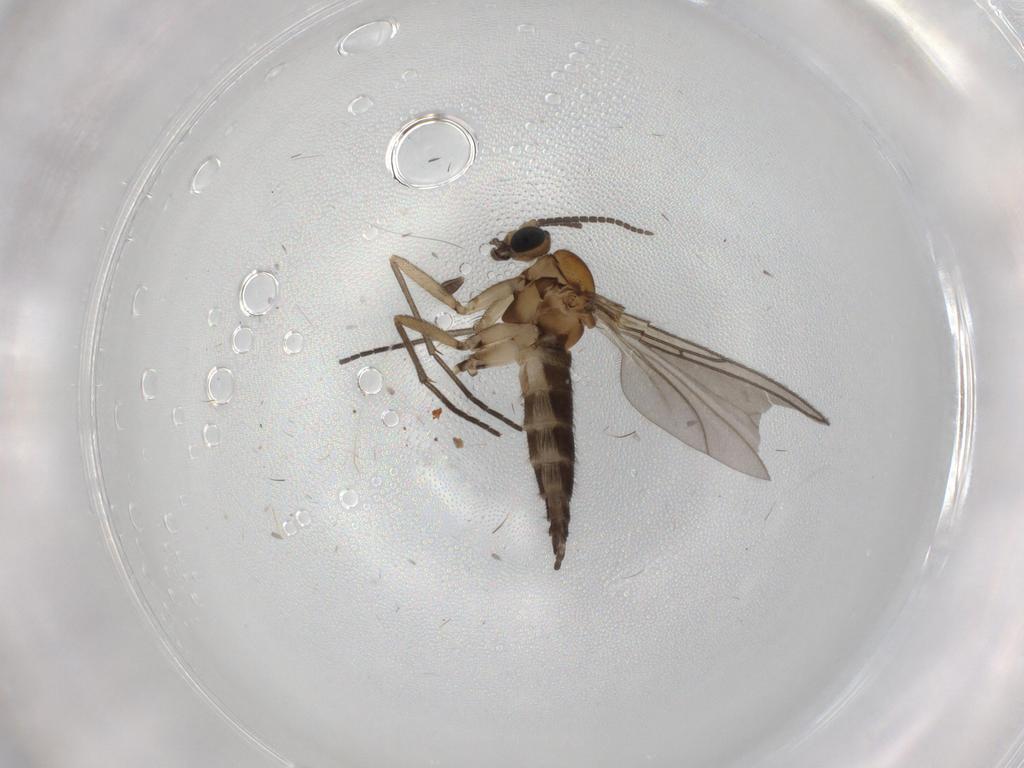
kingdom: Animalia
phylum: Arthropoda
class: Insecta
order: Diptera
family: Sciaridae
